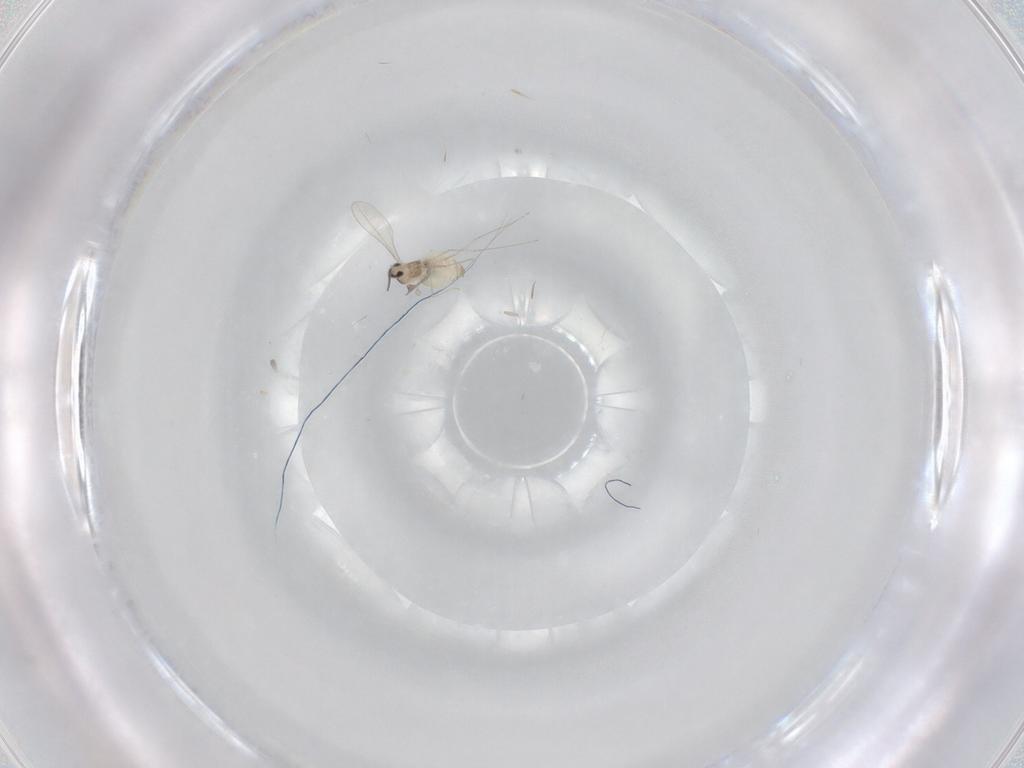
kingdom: Animalia
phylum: Arthropoda
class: Insecta
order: Diptera
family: Cecidomyiidae
